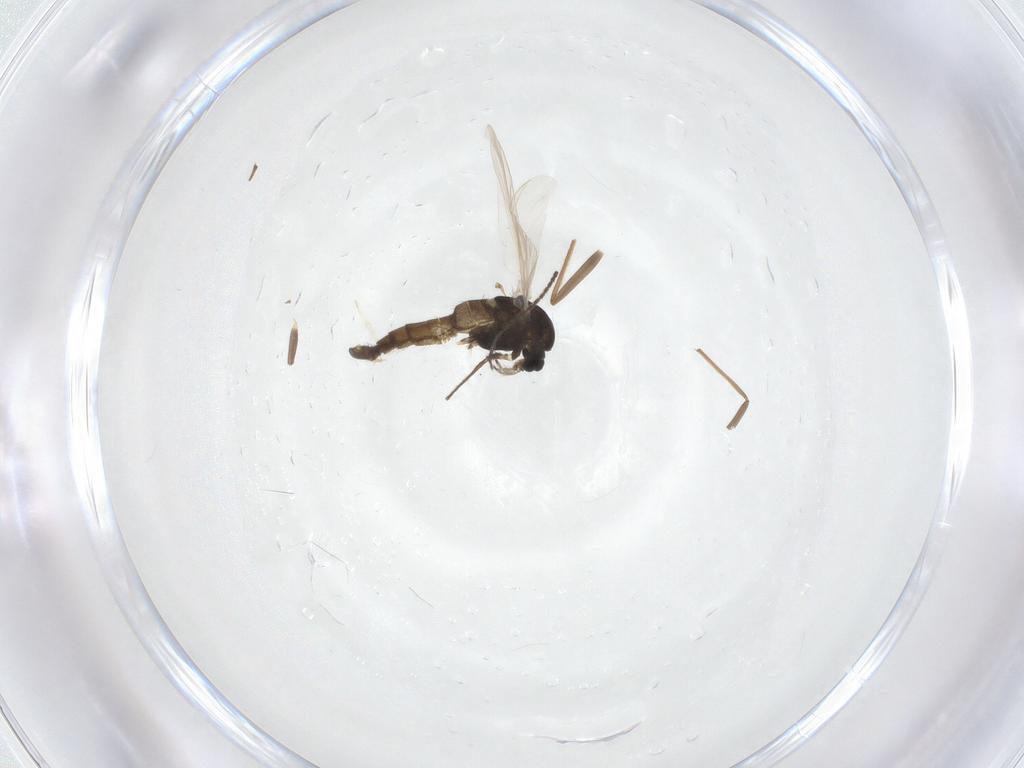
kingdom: Animalia
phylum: Arthropoda
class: Insecta
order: Diptera
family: Chironomidae
